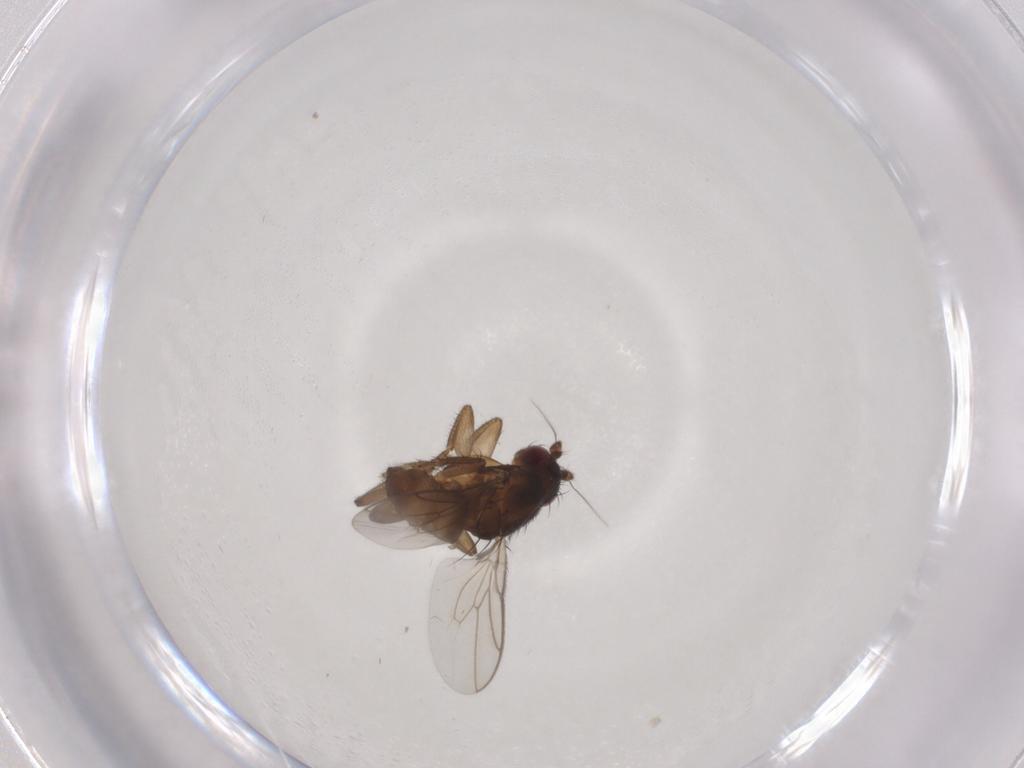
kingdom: Animalia
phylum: Arthropoda
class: Insecta
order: Diptera
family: Sphaeroceridae
